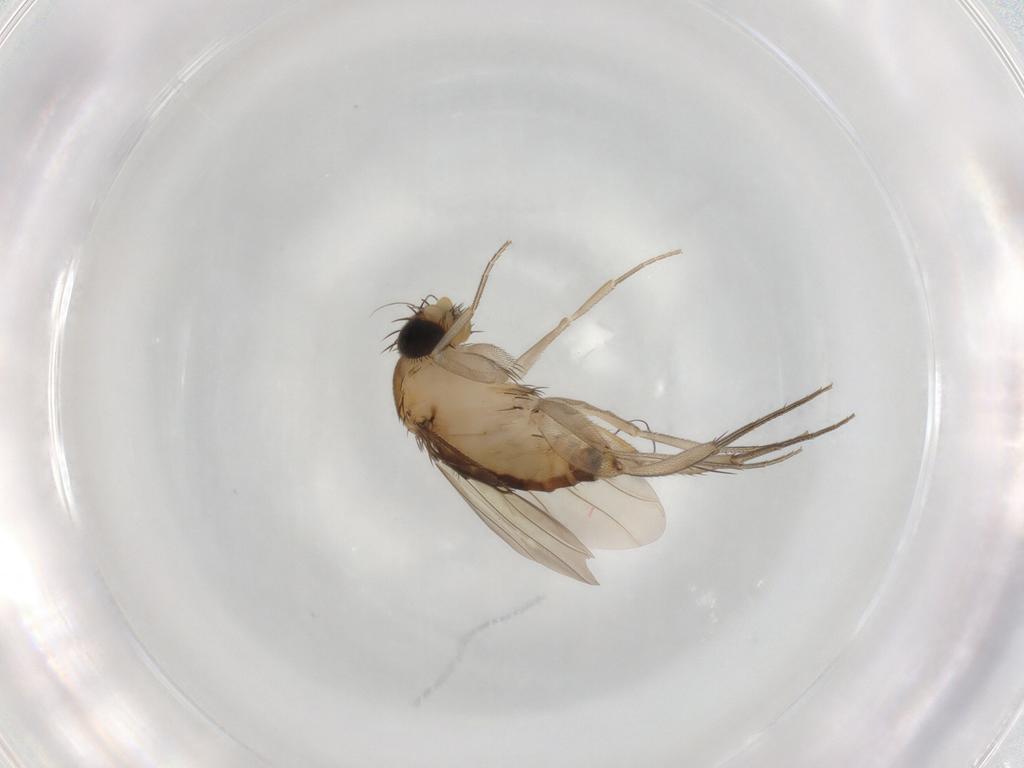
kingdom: Animalia
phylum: Arthropoda
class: Insecta
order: Diptera
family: Phoridae
